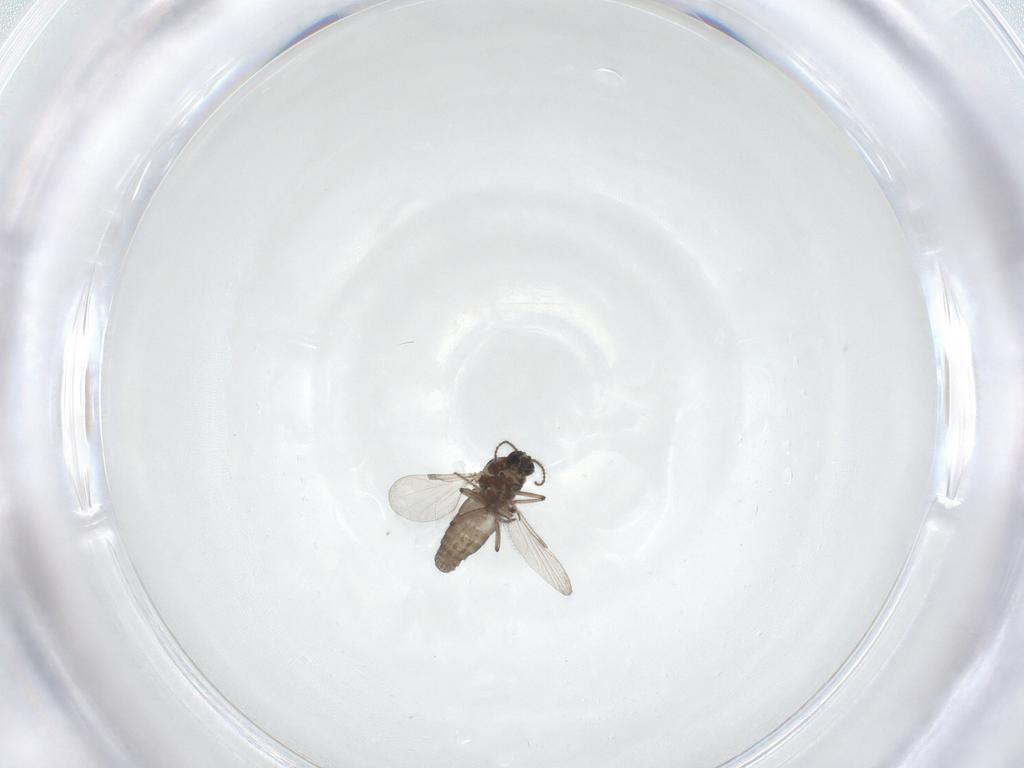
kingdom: Animalia
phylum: Arthropoda
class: Insecta
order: Diptera
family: Ceratopogonidae
